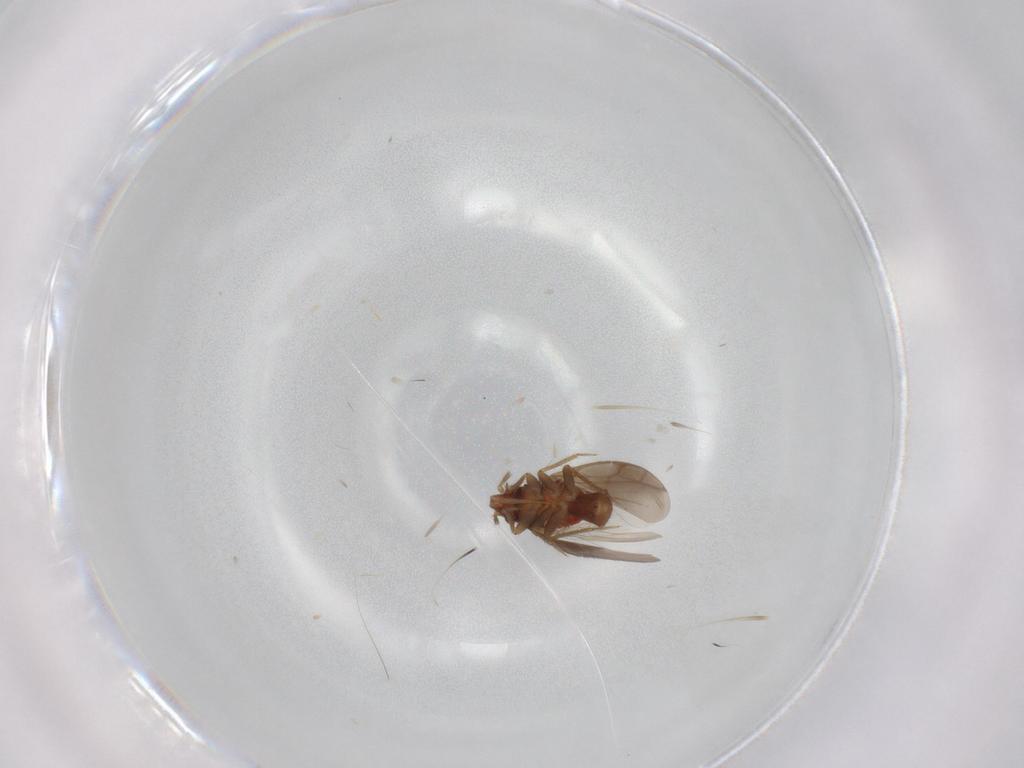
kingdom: Animalia
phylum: Arthropoda
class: Insecta
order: Hemiptera
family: Ceratocombidae
